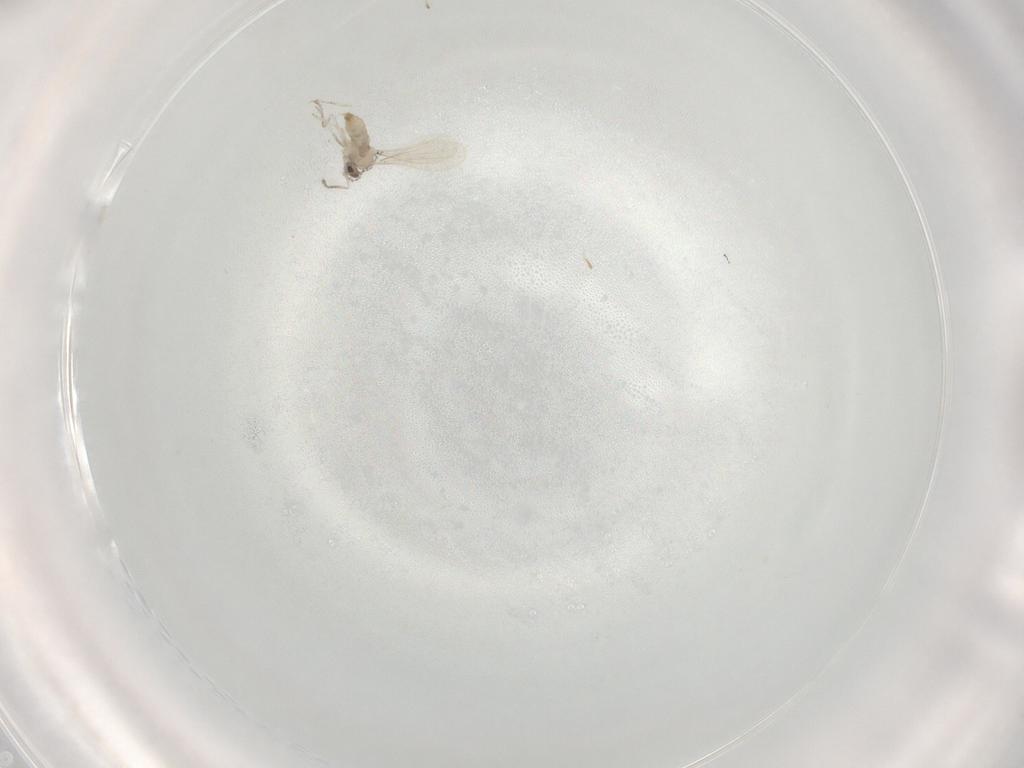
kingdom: Animalia
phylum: Arthropoda
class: Insecta
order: Diptera
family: Cecidomyiidae
